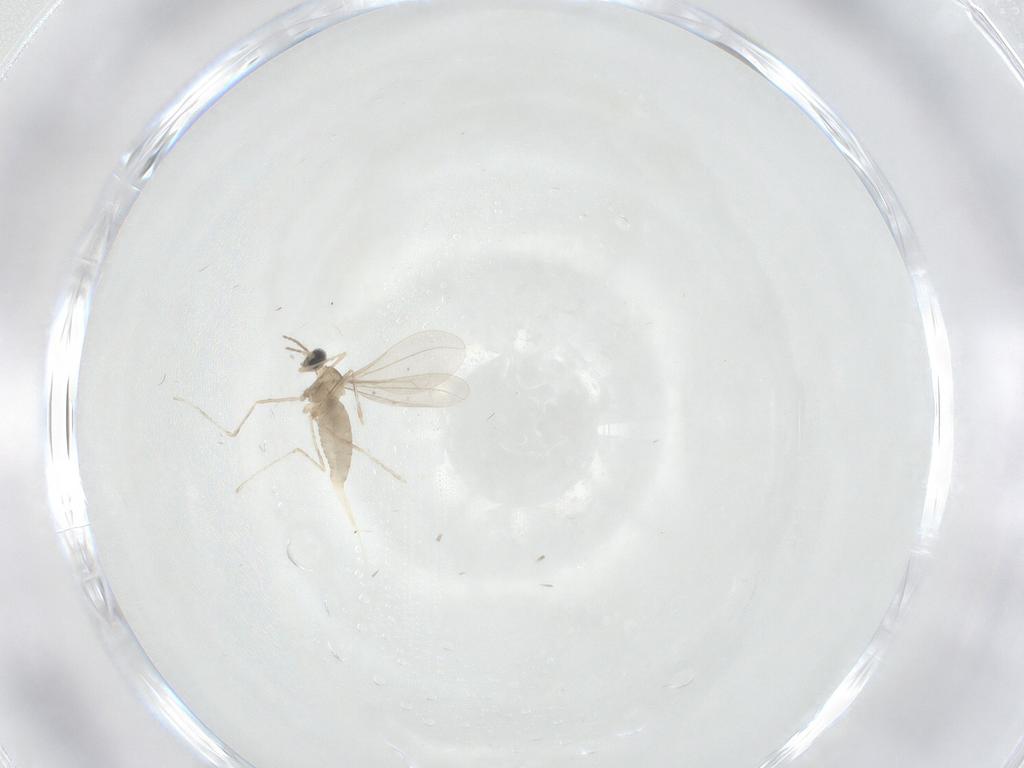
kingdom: Animalia
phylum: Arthropoda
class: Insecta
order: Diptera
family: Cecidomyiidae
